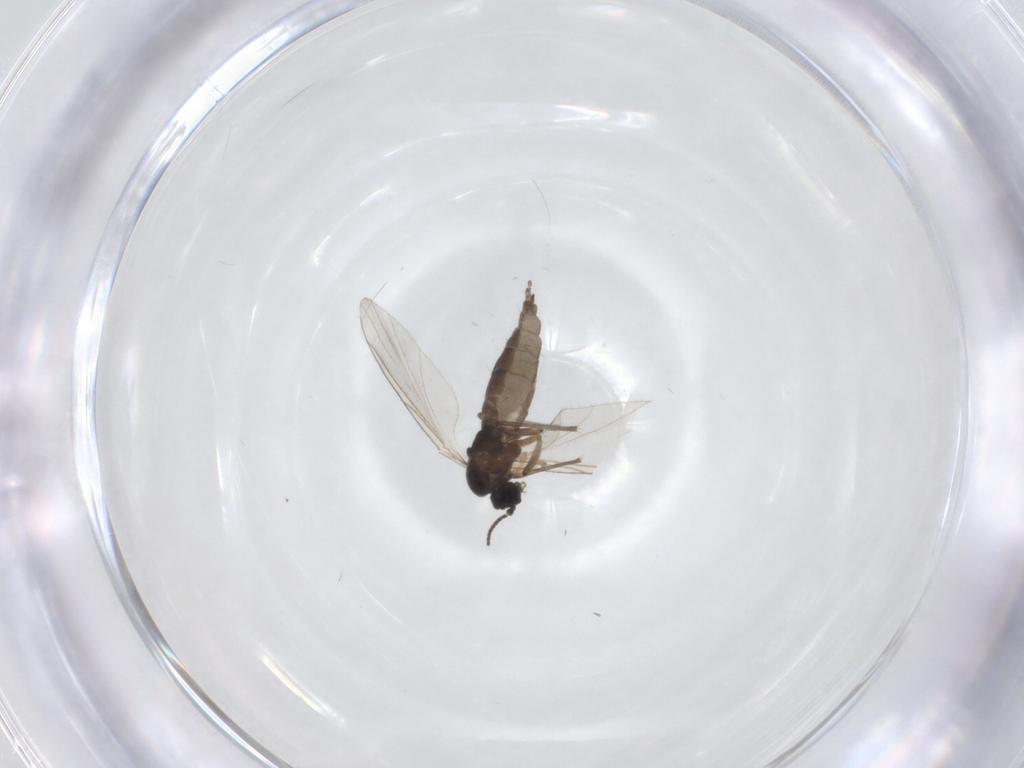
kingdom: Animalia
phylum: Arthropoda
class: Insecta
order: Diptera
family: Sciaridae
